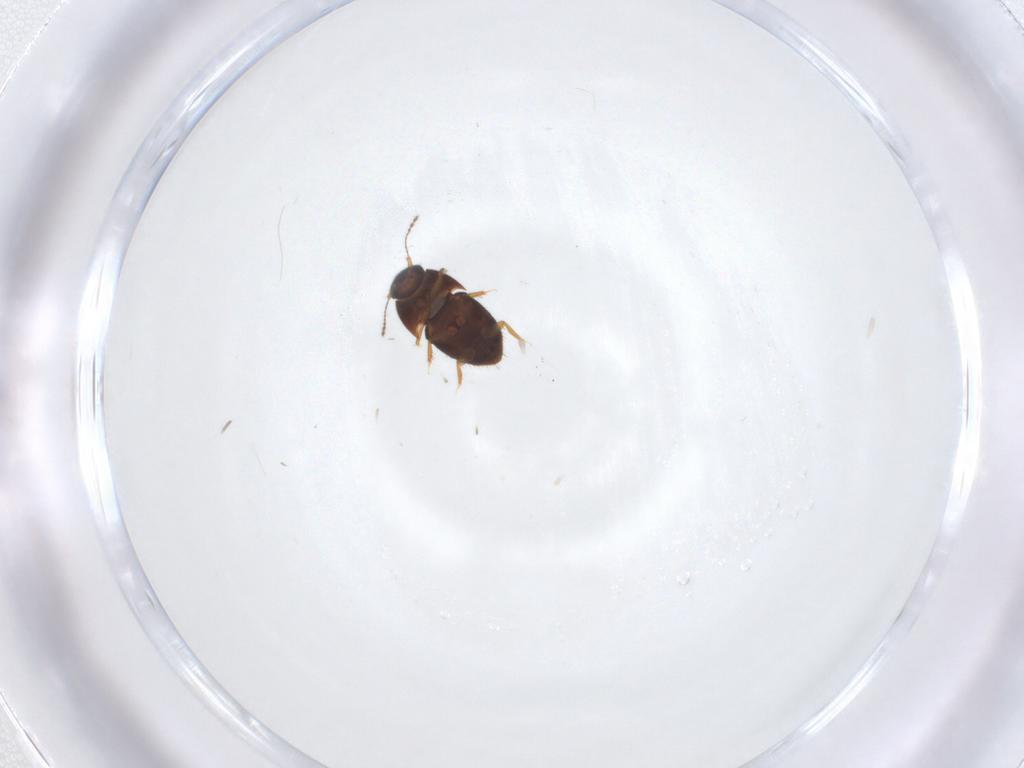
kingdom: Animalia
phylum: Arthropoda
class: Insecta
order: Coleoptera
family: Ptiliidae
